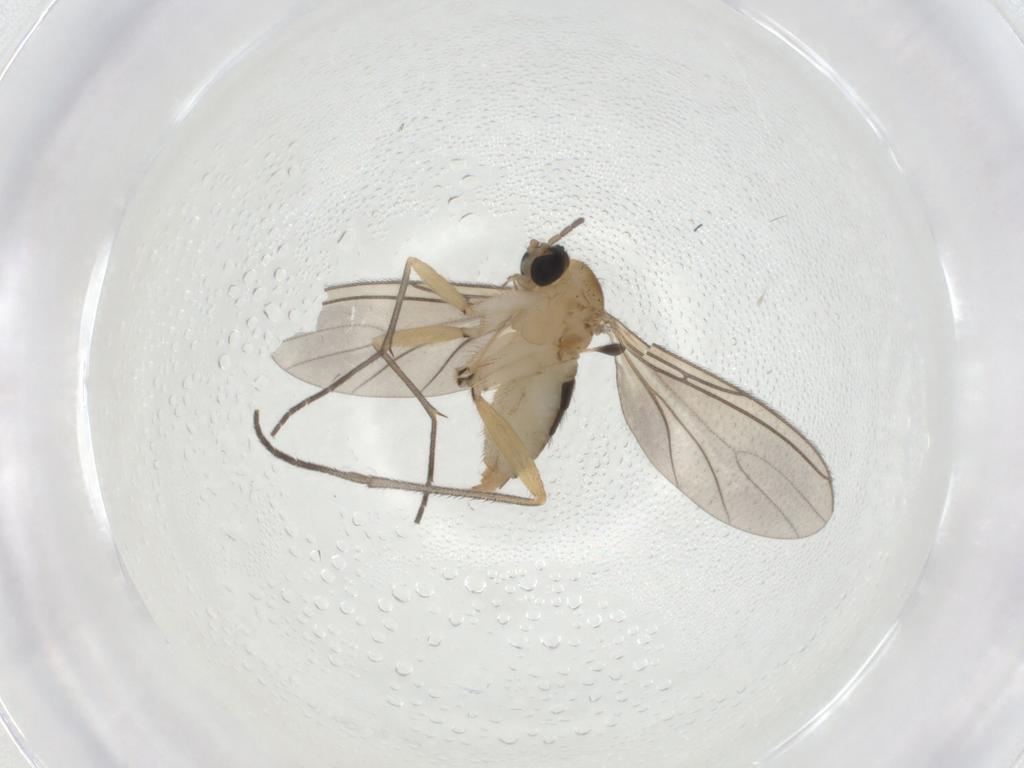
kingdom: Animalia
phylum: Arthropoda
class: Insecta
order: Diptera
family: Sciaridae
